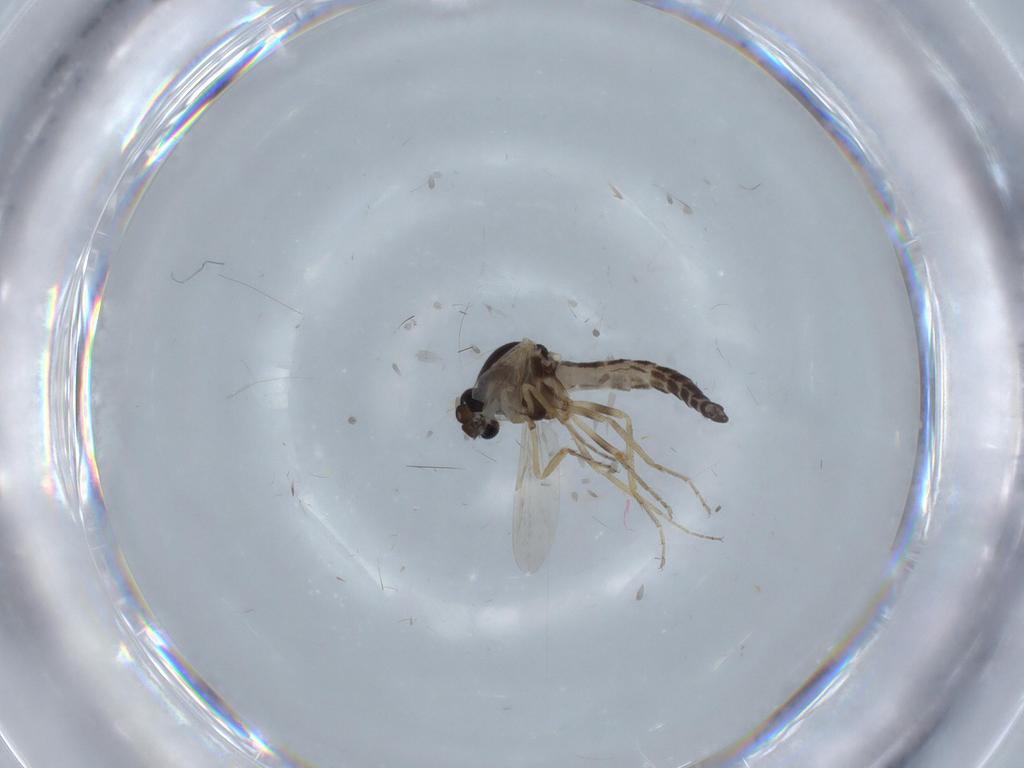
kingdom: Animalia
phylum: Arthropoda
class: Insecta
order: Diptera
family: Ceratopogonidae
